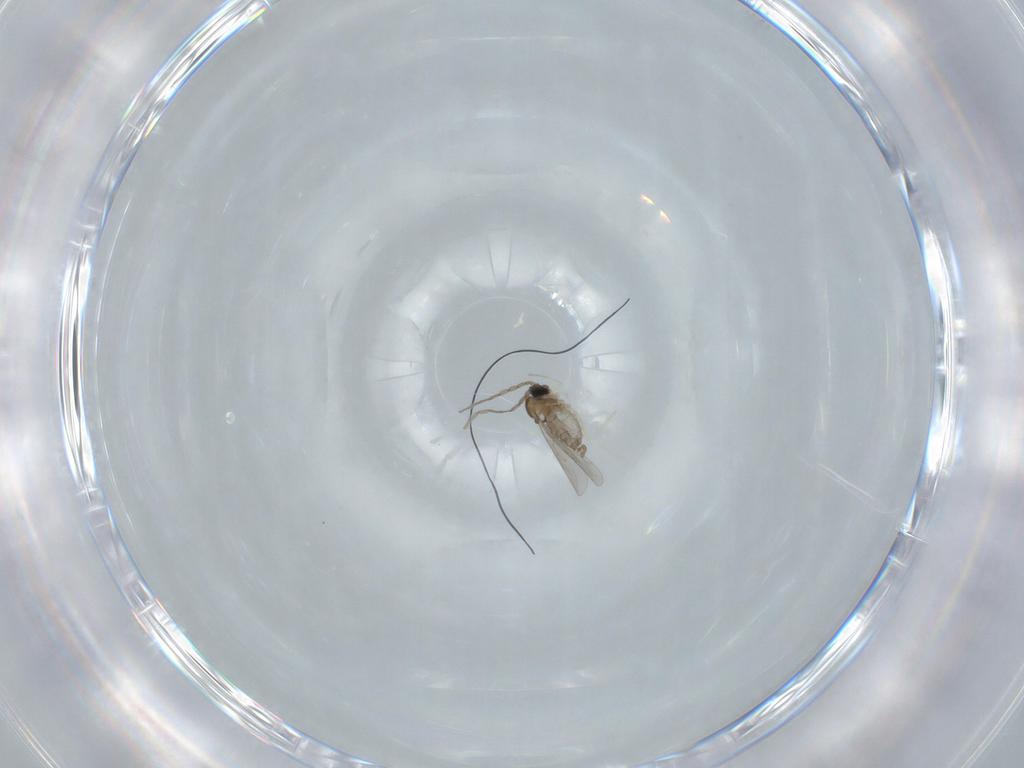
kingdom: Animalia
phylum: Arthropoda
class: Insecta
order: Diptera
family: Cecidomyiidae
